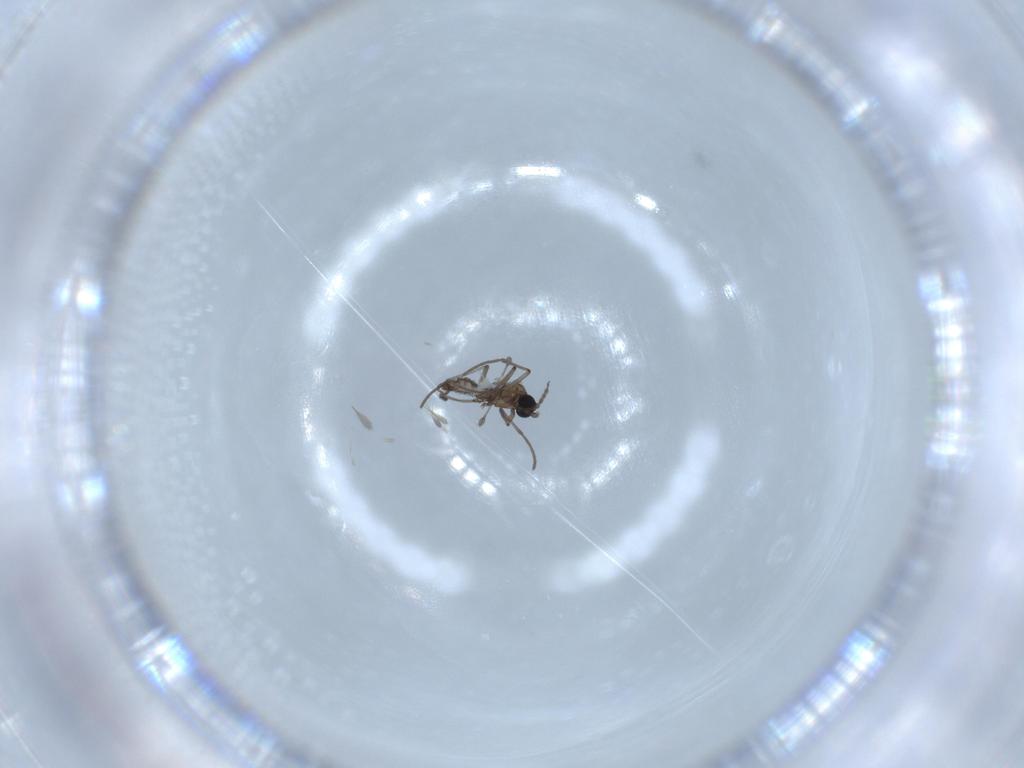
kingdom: Animalia
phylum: Arthropoda
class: Insecta
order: Diptera
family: Sciaridae
